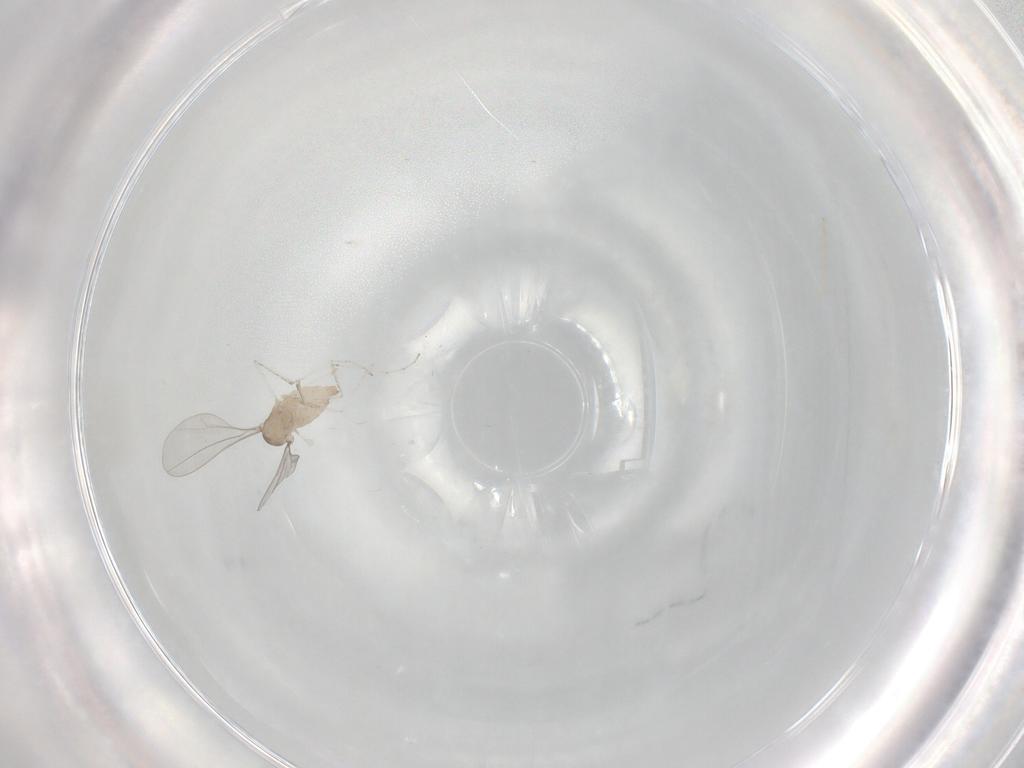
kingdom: Animalia
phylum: Arthropoda
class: Insecta
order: Diptera
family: Cecidomyiidae
